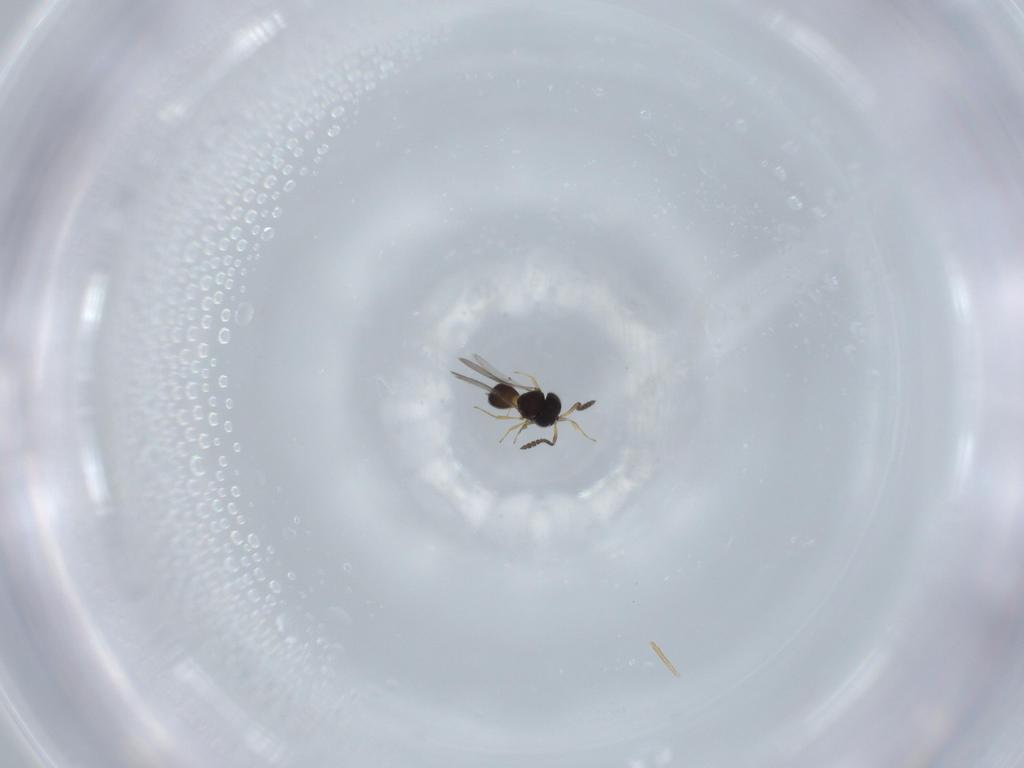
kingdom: Animalia
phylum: Arthropoda
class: Insecta
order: Hymenoptera
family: Scelionidae
